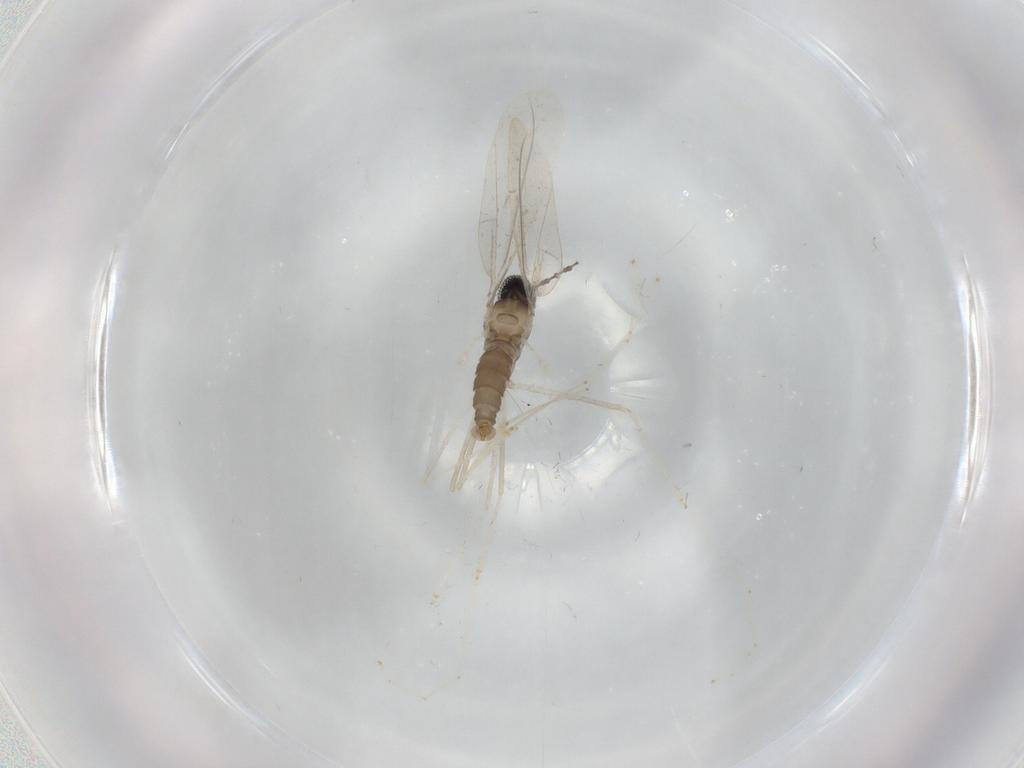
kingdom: Animalia
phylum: Arthropoda
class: Insecta
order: Diptera
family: Cecidomyiidae
